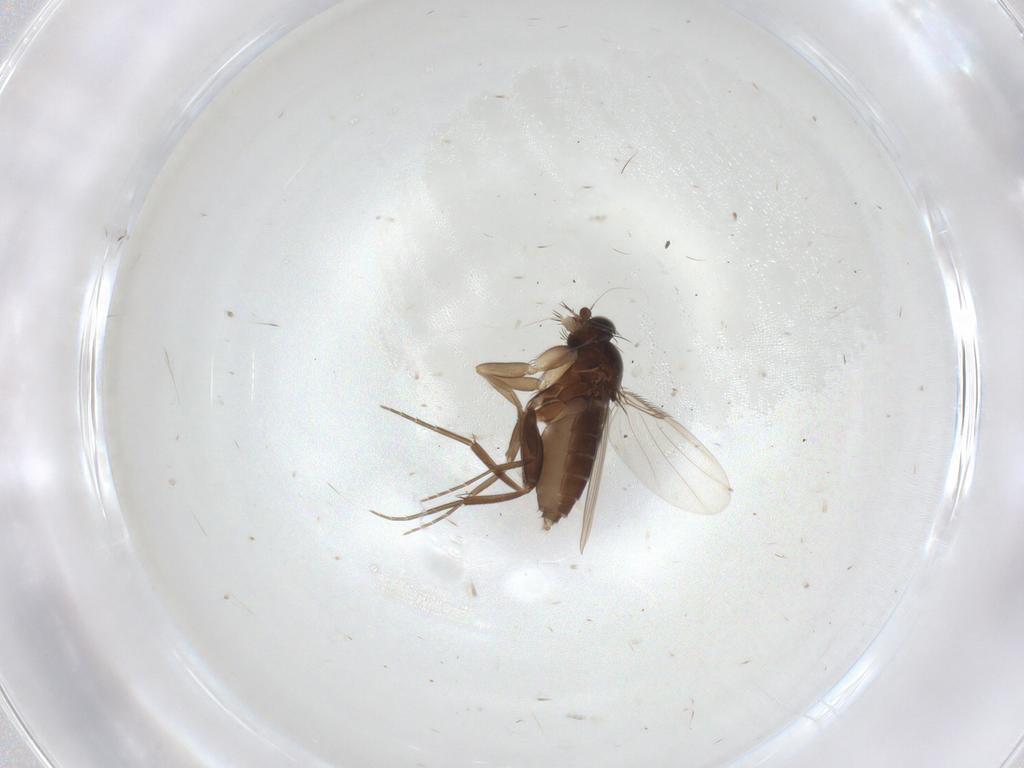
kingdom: Animalia
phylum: Arthropoda
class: Insecta
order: Diptera
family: Phoridae
